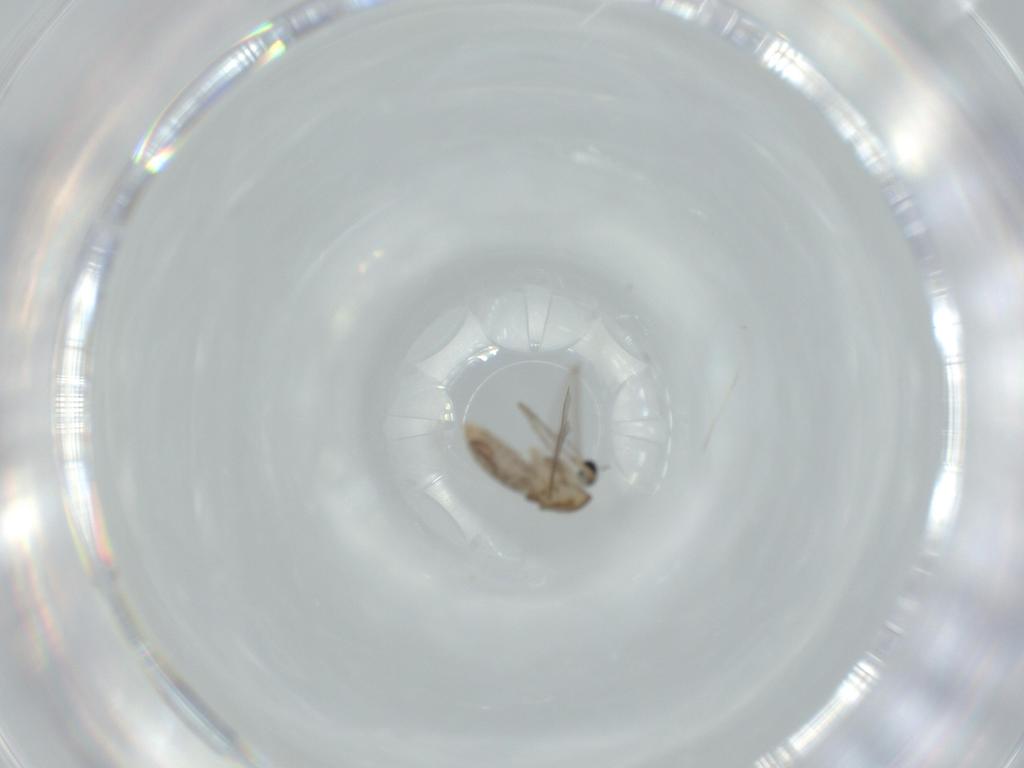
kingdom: Animalia
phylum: Arthropoda
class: Insecta
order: Diptera
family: Chironomidae
